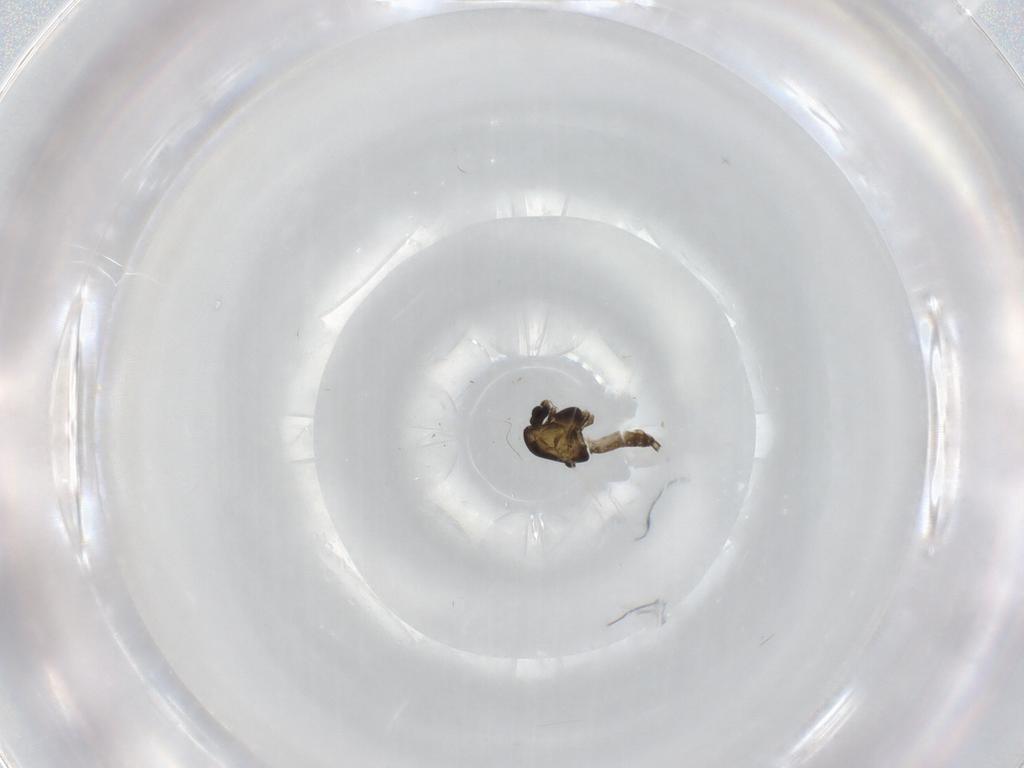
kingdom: Animalia
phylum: Arthropoda
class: Insecta
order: Diptera
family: Chironomidae
